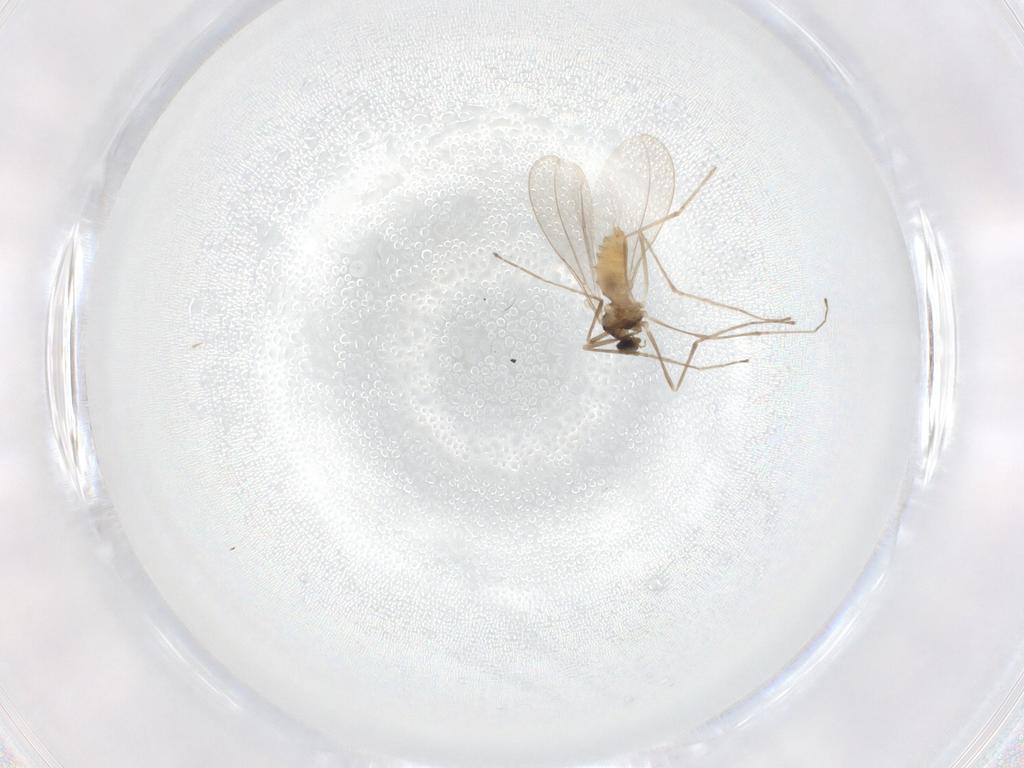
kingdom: Animalia
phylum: Arthropoda
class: Insecta
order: Diptera
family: Cecidomyiidae
